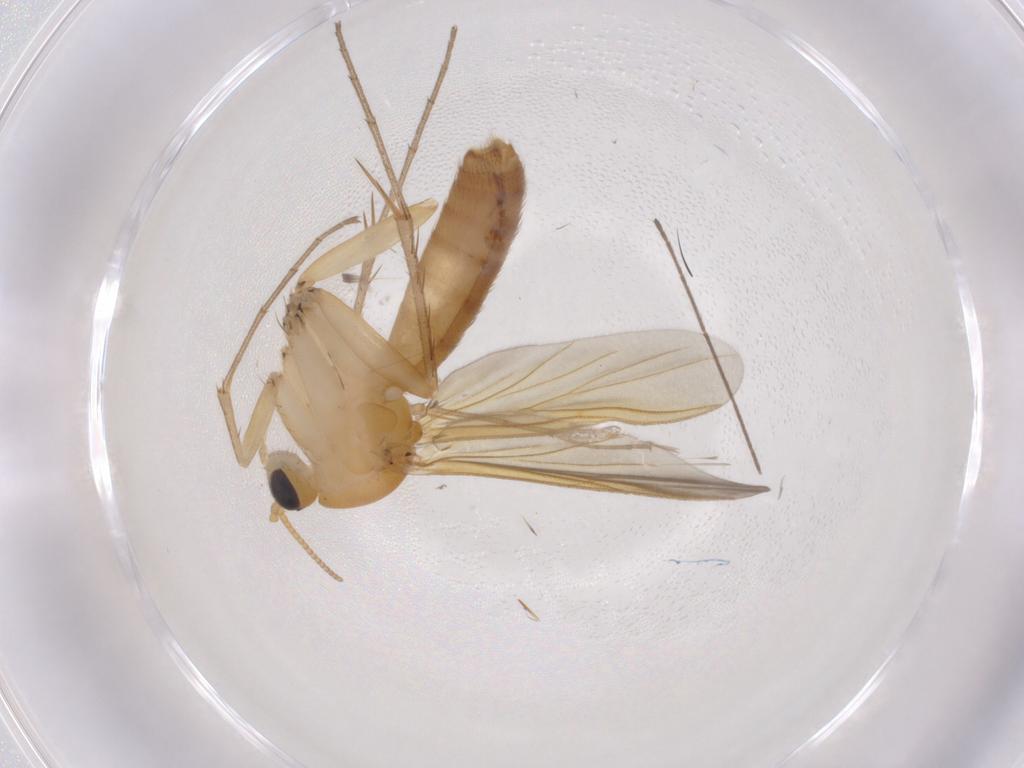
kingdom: Animalia
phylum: Arthropoda
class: Insecta
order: Diptera
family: Mycetophilidae
